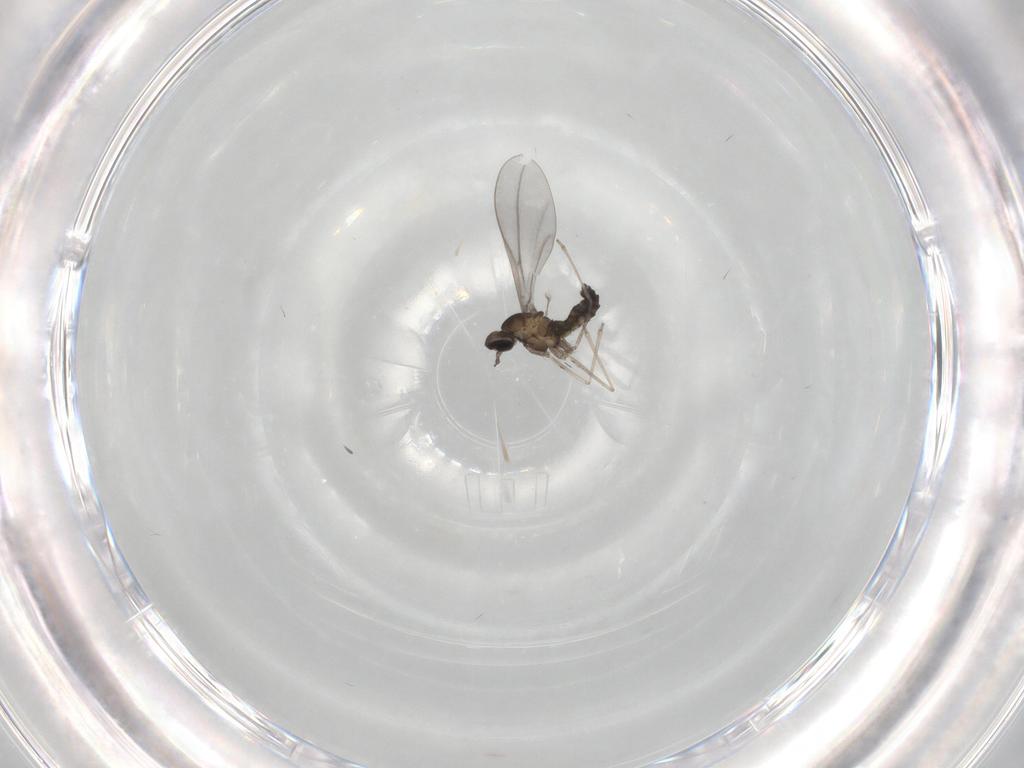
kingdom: Animalia
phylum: Arthropoda
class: Insecta
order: Diptera
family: Cecidomyiidae
